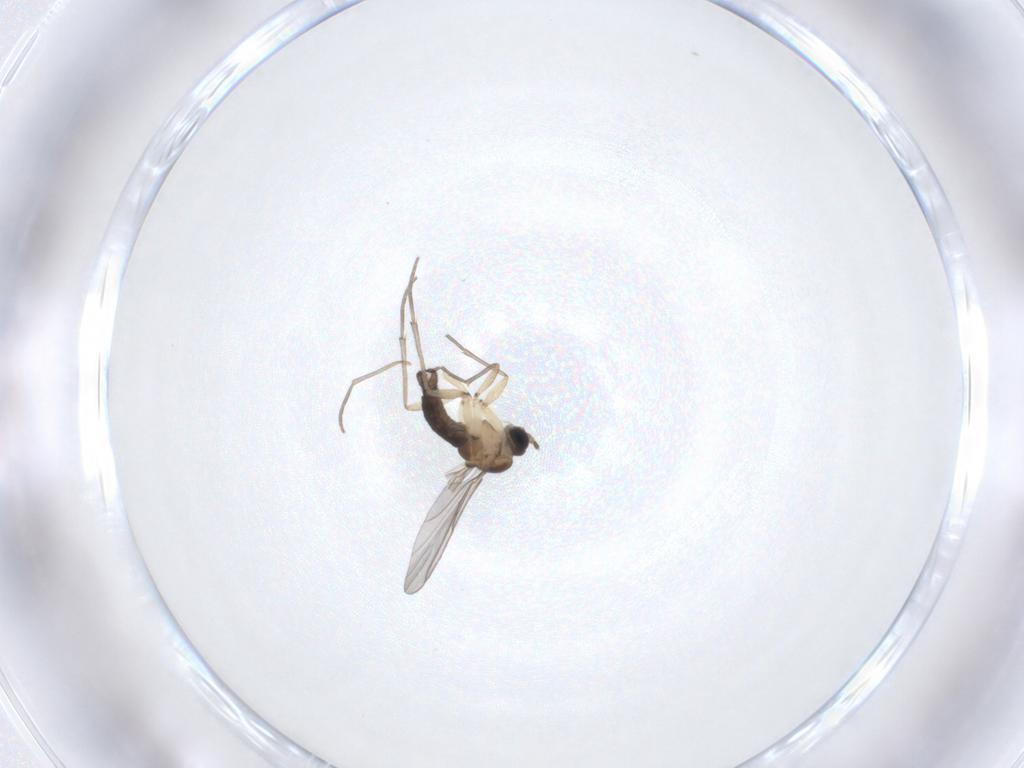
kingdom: Animalia
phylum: Arthropoda
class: Insecta
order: Diptera
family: Sciaridae
